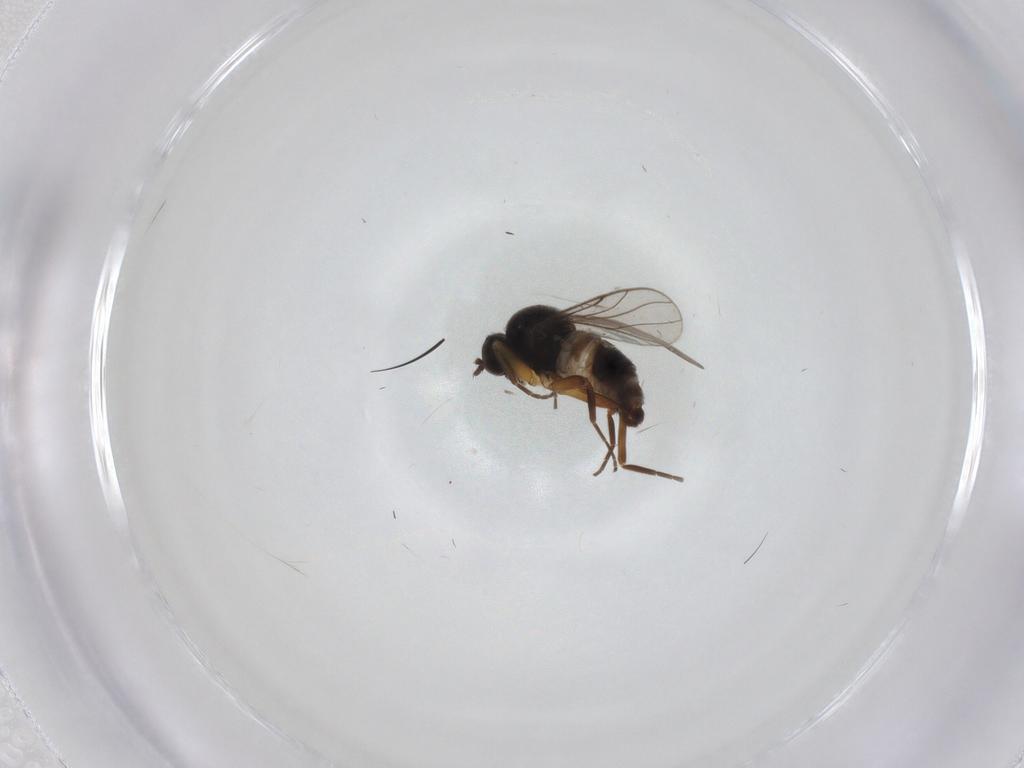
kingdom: Animalia
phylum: Arthropoda
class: Insecta
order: Diptera
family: Hybotidae
